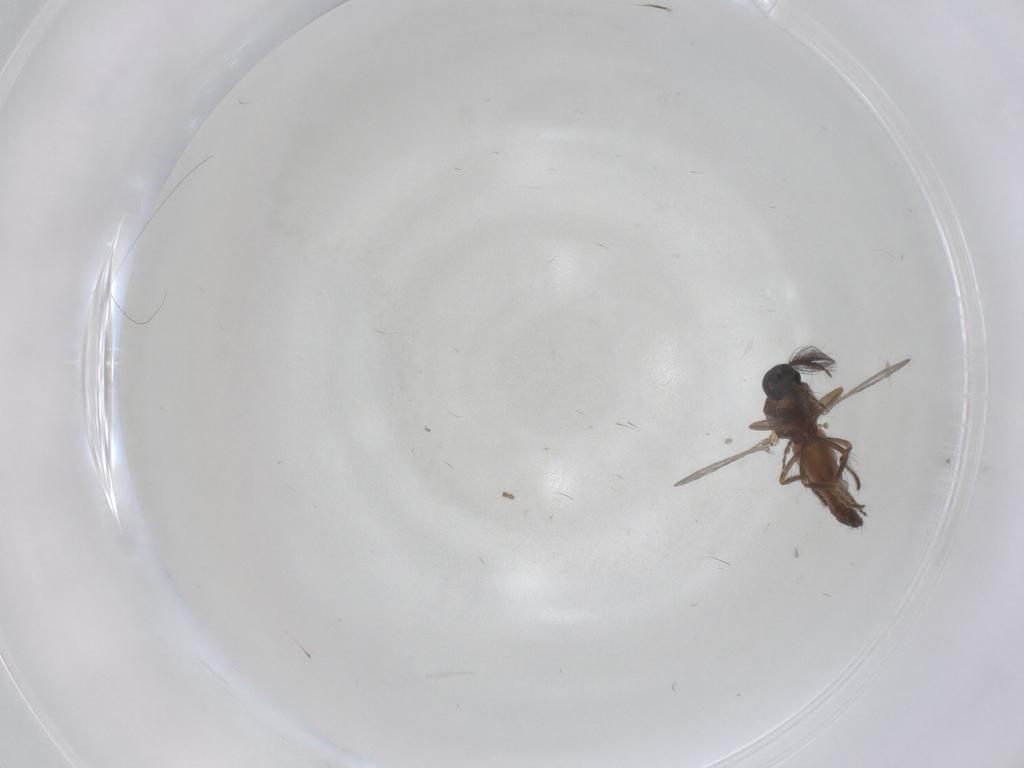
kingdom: Animalia
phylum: Arthropoda
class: Insecta
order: Diptera
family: Ceratopogonidae
